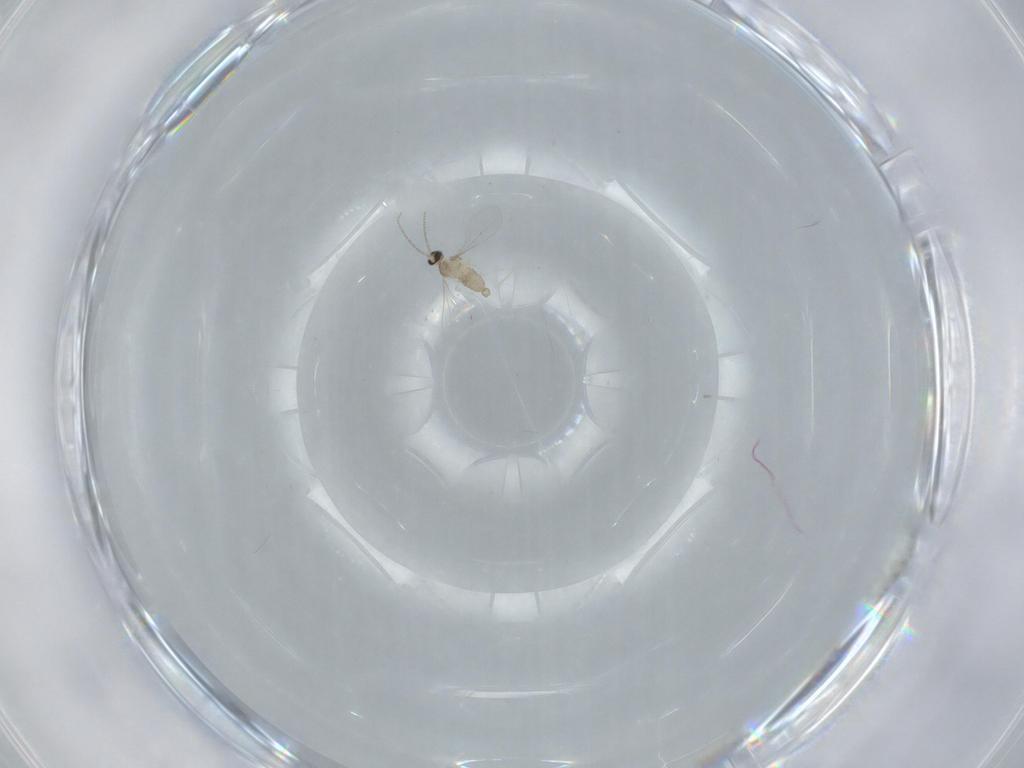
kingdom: Animalia
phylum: Arthropoda
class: Insecta
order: Diptera
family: Cecidomyiidae
